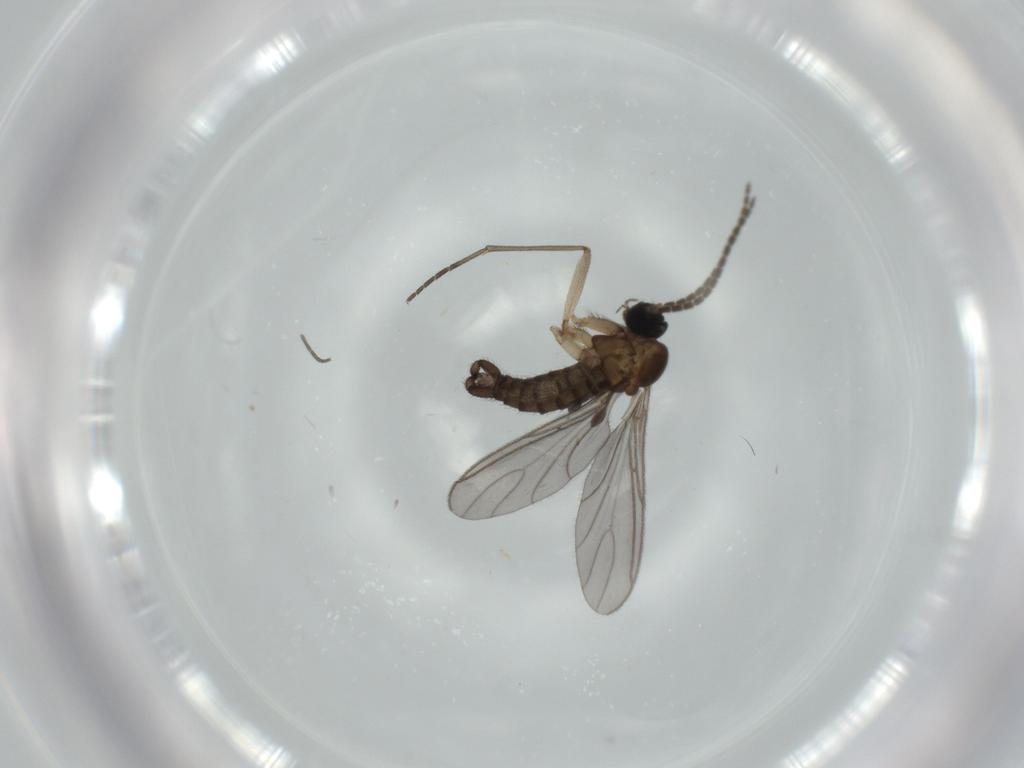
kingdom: Animalia
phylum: Arthropoda
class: Insecta
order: Diptera
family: Sciaridae
